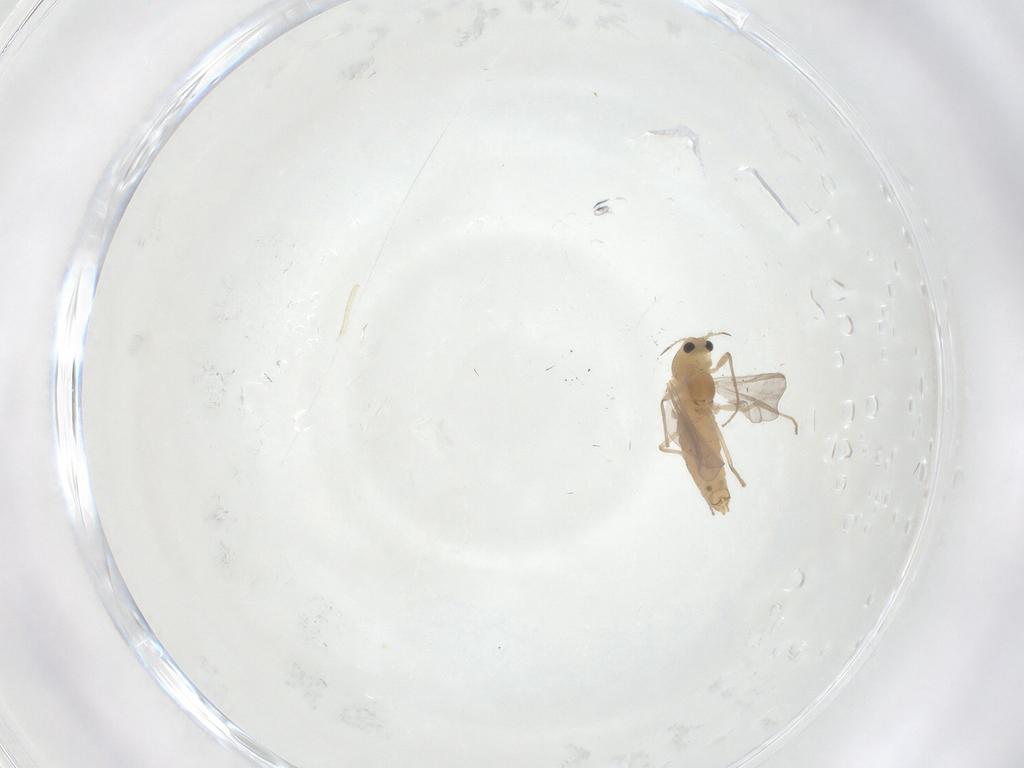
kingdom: Animalia
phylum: Arthropoda
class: Insecta
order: Diptera
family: Chironomidae
